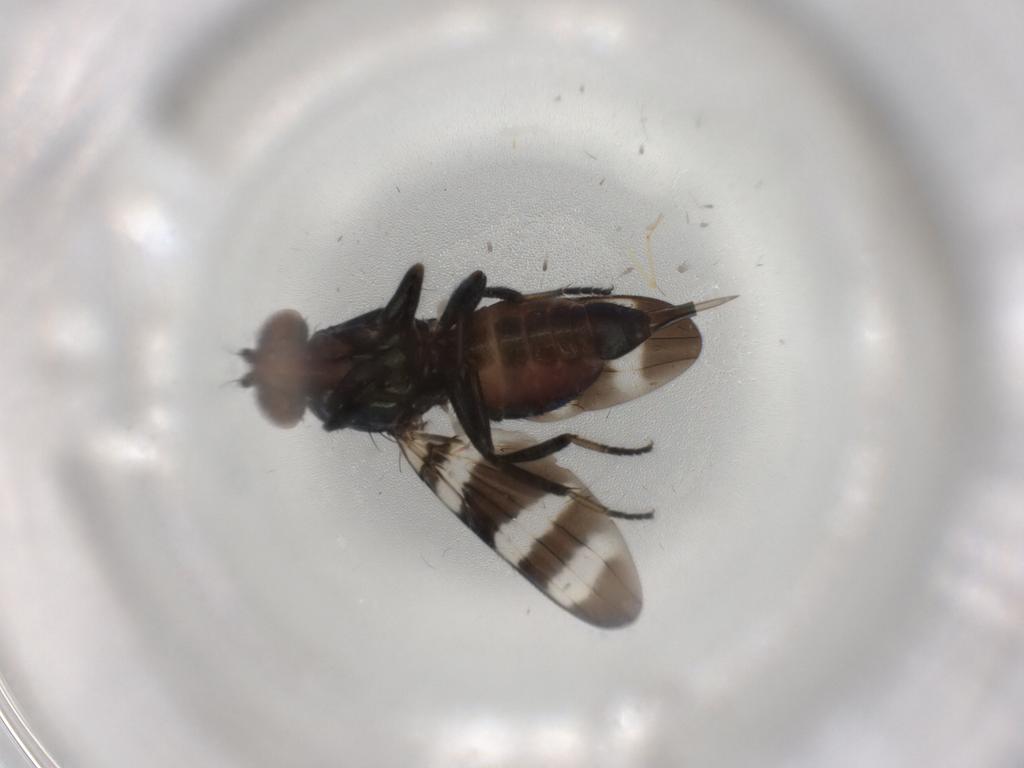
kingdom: Animalia
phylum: Arthropoda
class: Insecta
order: Diptera
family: Ulidiidae
